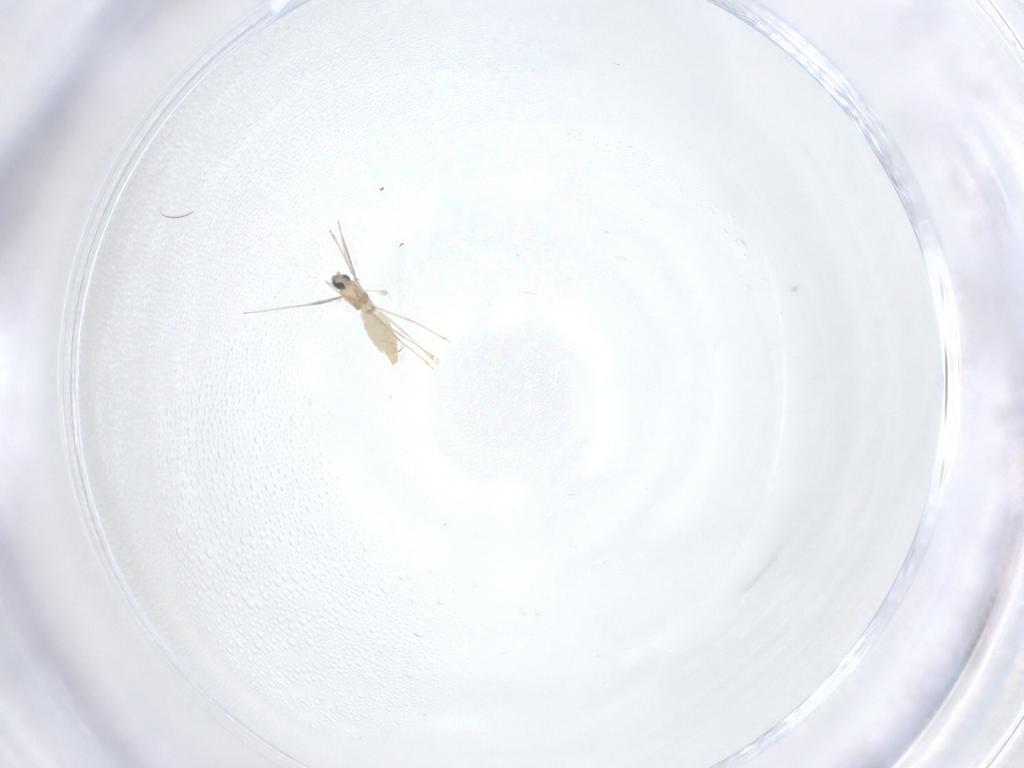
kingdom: Animalia
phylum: Arthropoda
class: Insecta
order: Diptera
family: Cecidomyiidae
